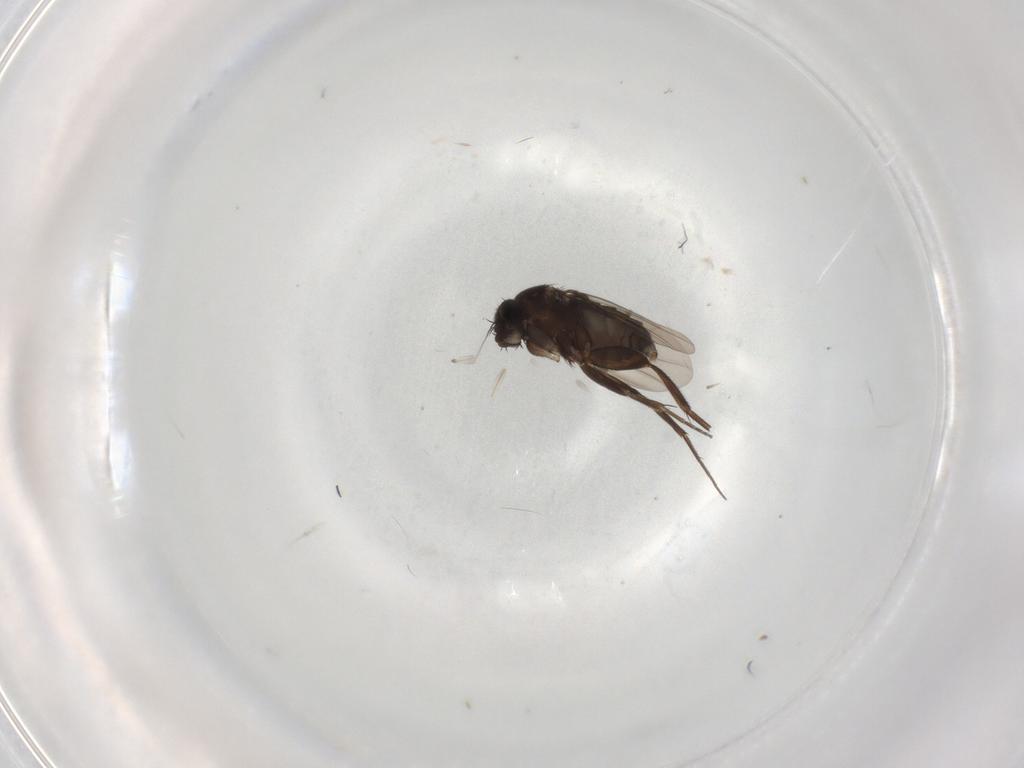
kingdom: Animalia
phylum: Arthropoda
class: Insecta
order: Diptera
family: Phoridae
